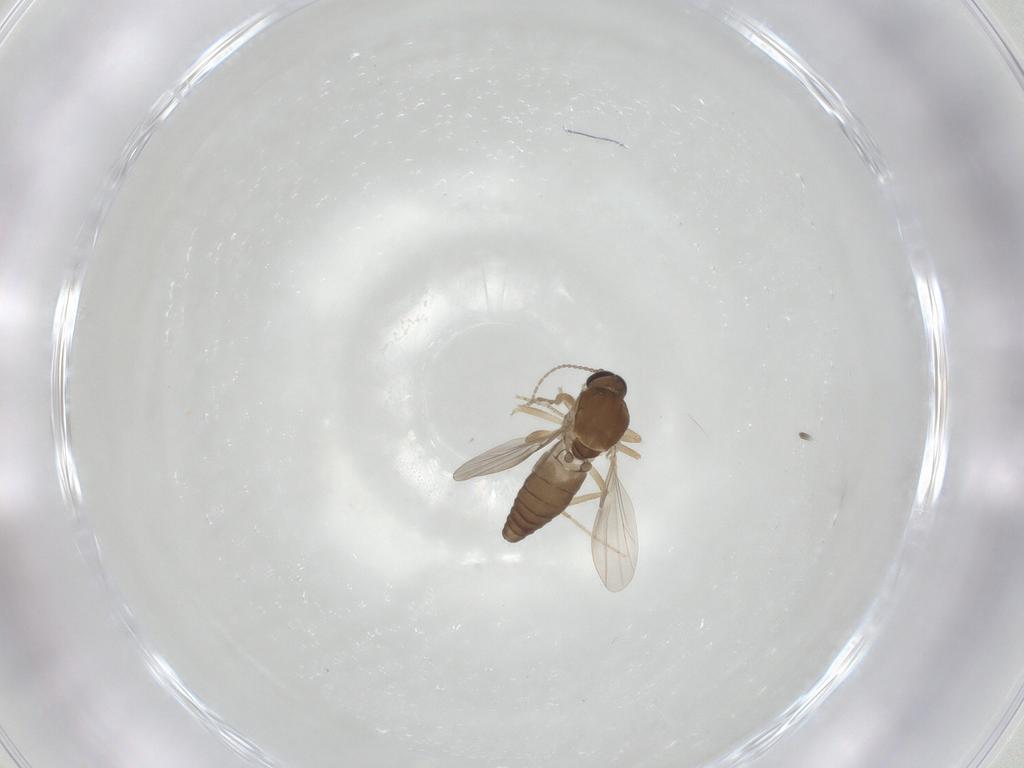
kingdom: Animalia
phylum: Arthropoda
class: Insecta
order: Diptera
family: Ceratopogonidae
